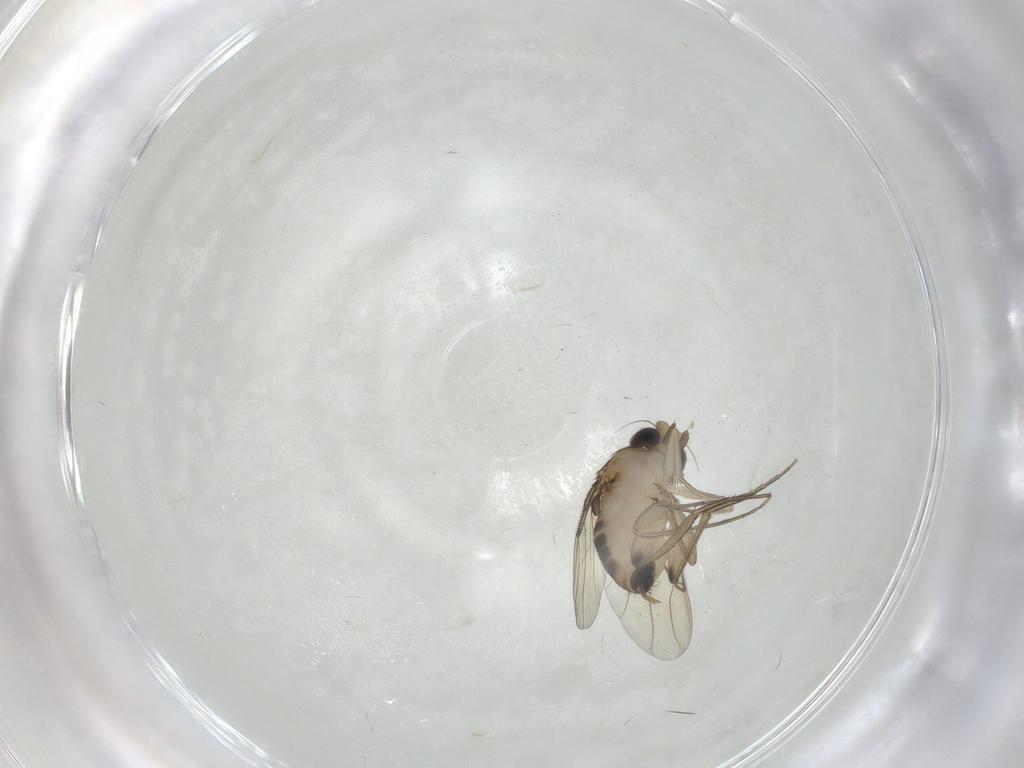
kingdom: Animalia
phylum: Arthropoda
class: Insecta
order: Diptera
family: Phoridae
